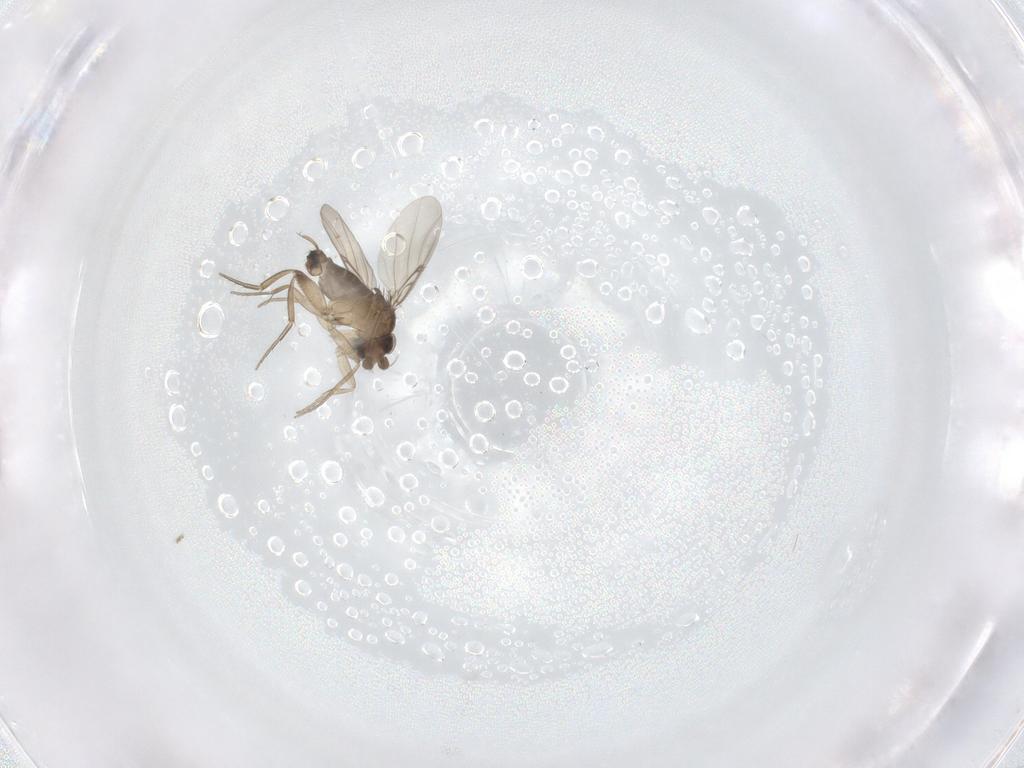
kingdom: Animalia
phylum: Arthropoda
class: Insecta
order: Diptera
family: Phoridae
